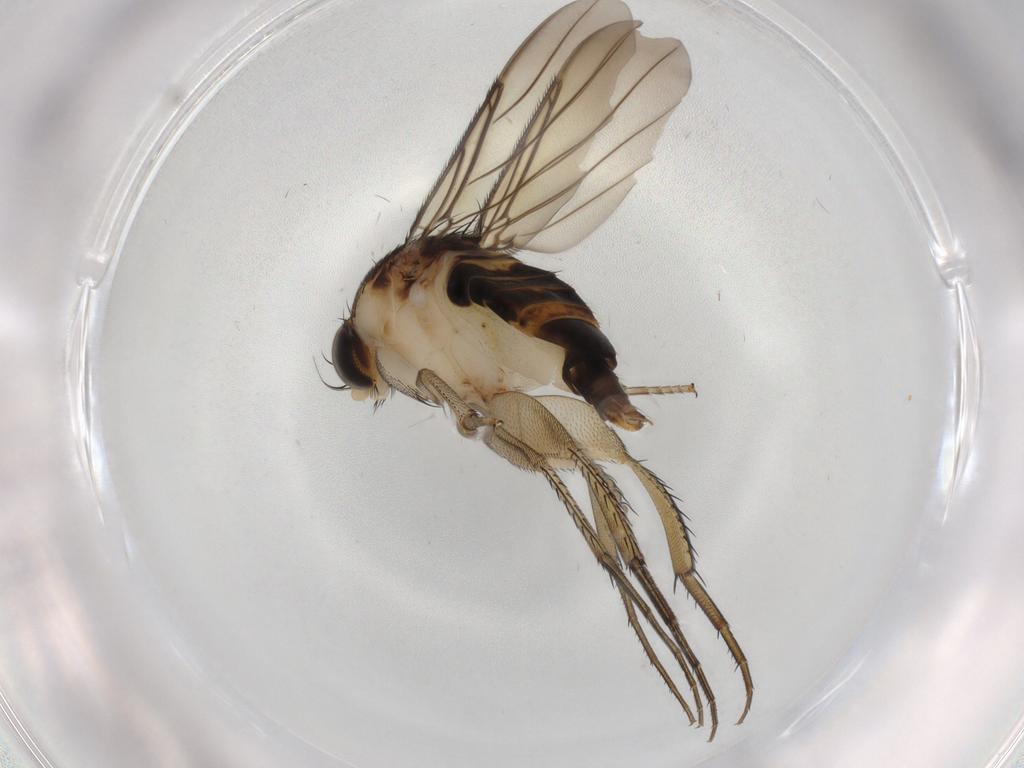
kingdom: Animalia
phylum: Arthropoda
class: Insecta
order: Diptera
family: Phoridae
